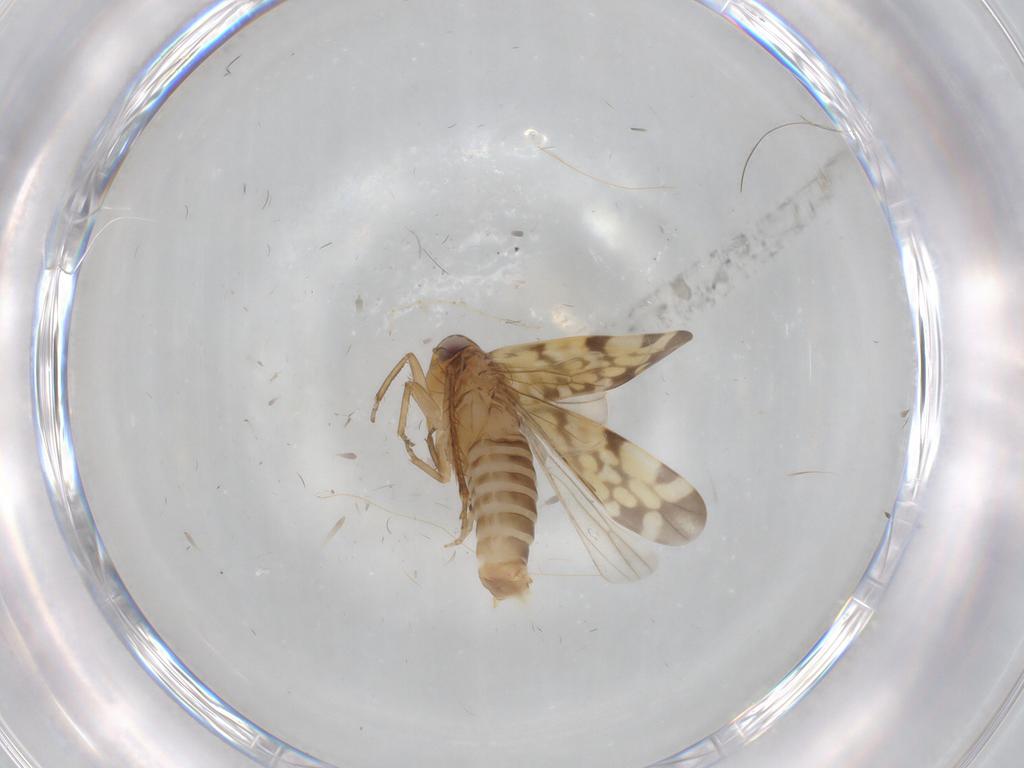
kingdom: Animalia
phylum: Arthropoda
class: Insecta
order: Hemiptera
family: Cicadellidae
